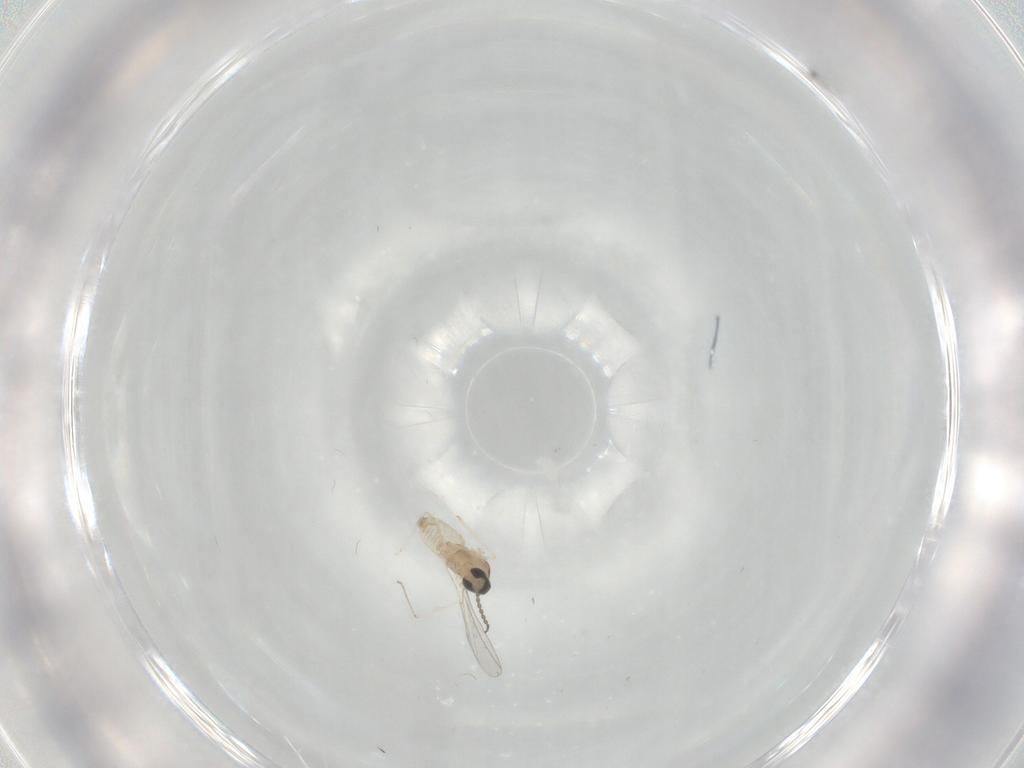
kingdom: Animalia
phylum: Arthropoda
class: Insecta
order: Diptera
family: Cecidomyiidae
